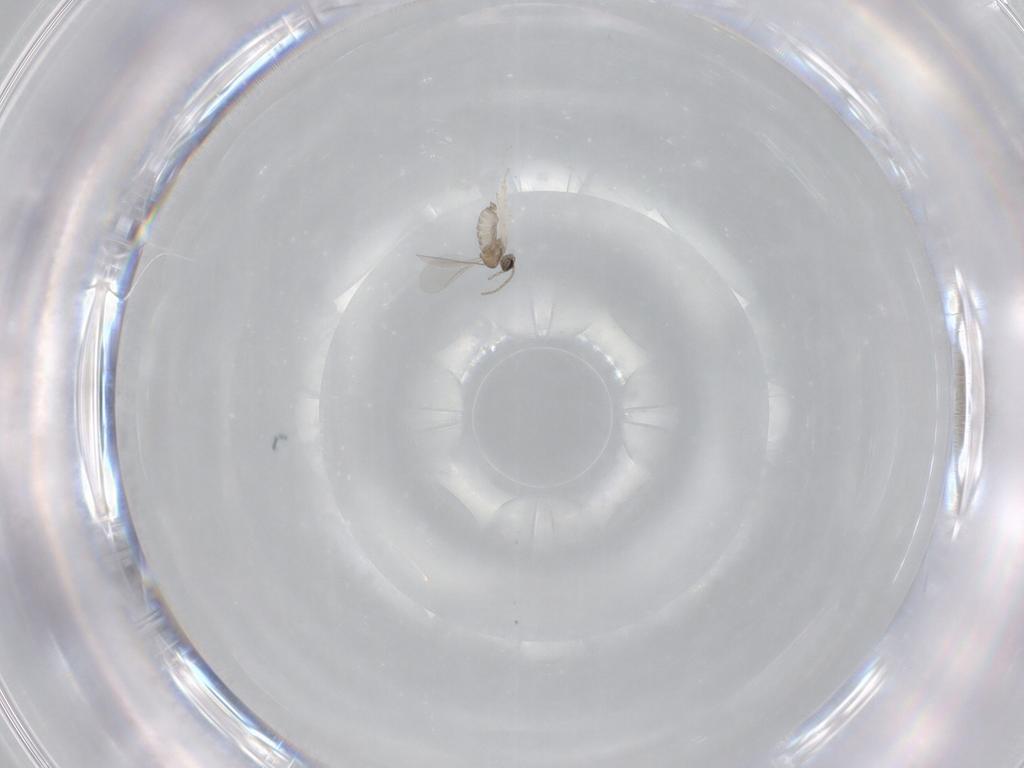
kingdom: Animalia
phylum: Arthropoda
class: Insecta
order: Diptera
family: Cecidomyiidae
